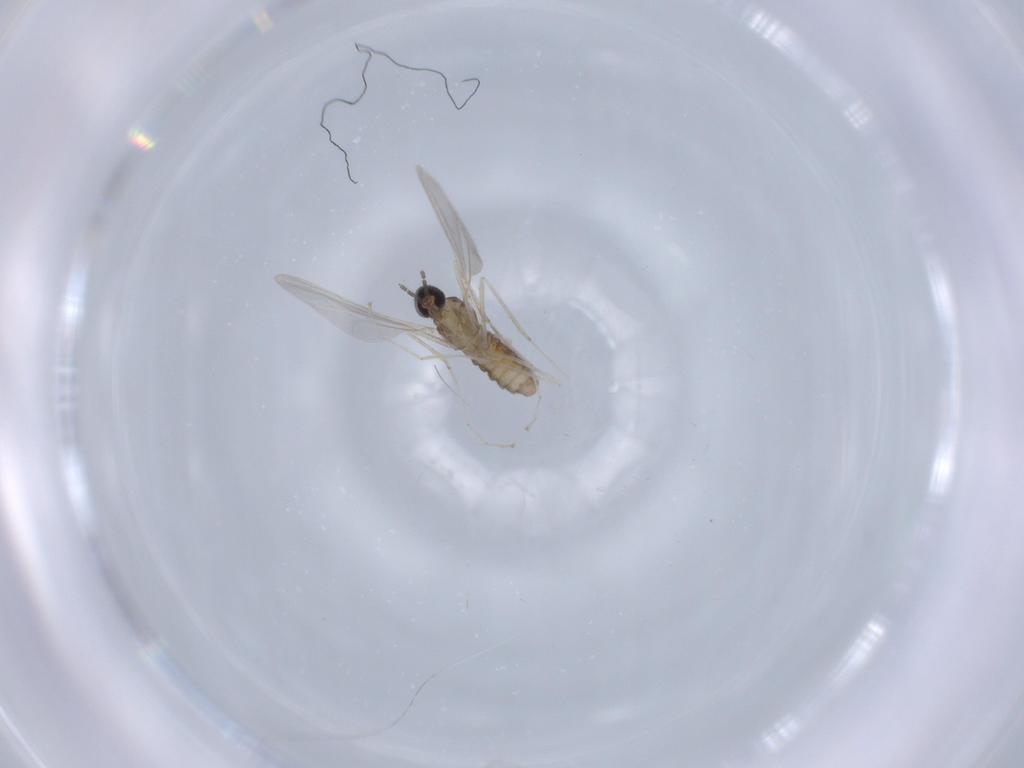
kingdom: Animalia
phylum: Arthropoda
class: Insecta
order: Diptera
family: Cecidomyiidae
